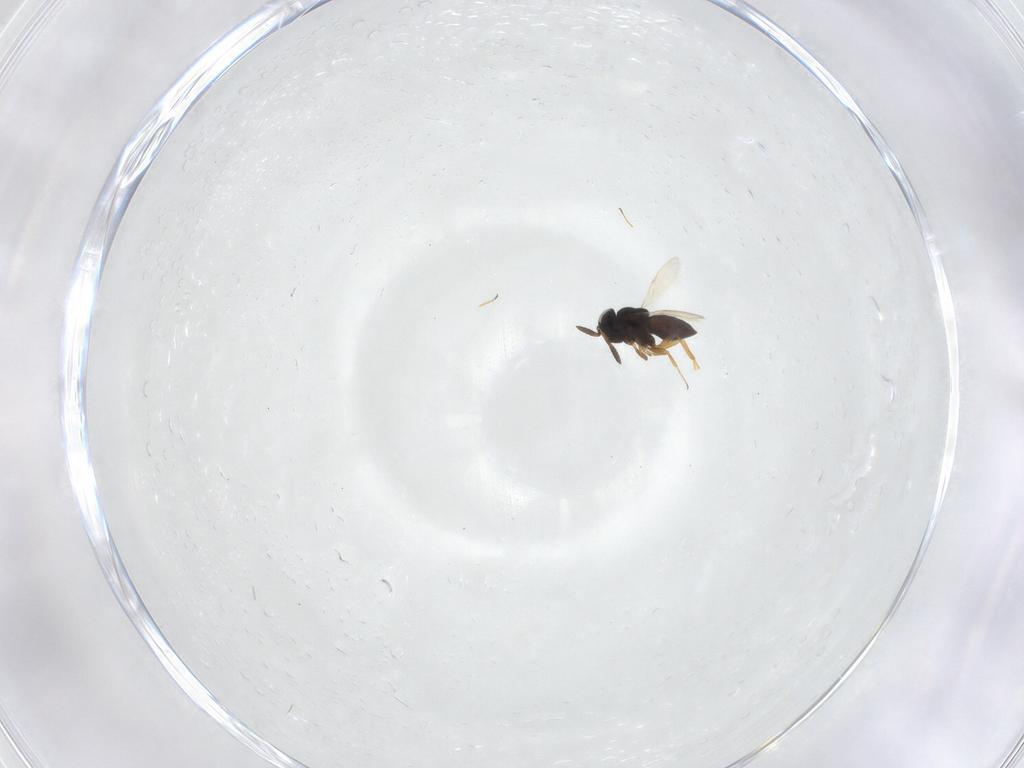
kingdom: Animalia
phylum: Arthropoda
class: Insecta
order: Hymenoptera
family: Scelionidae
